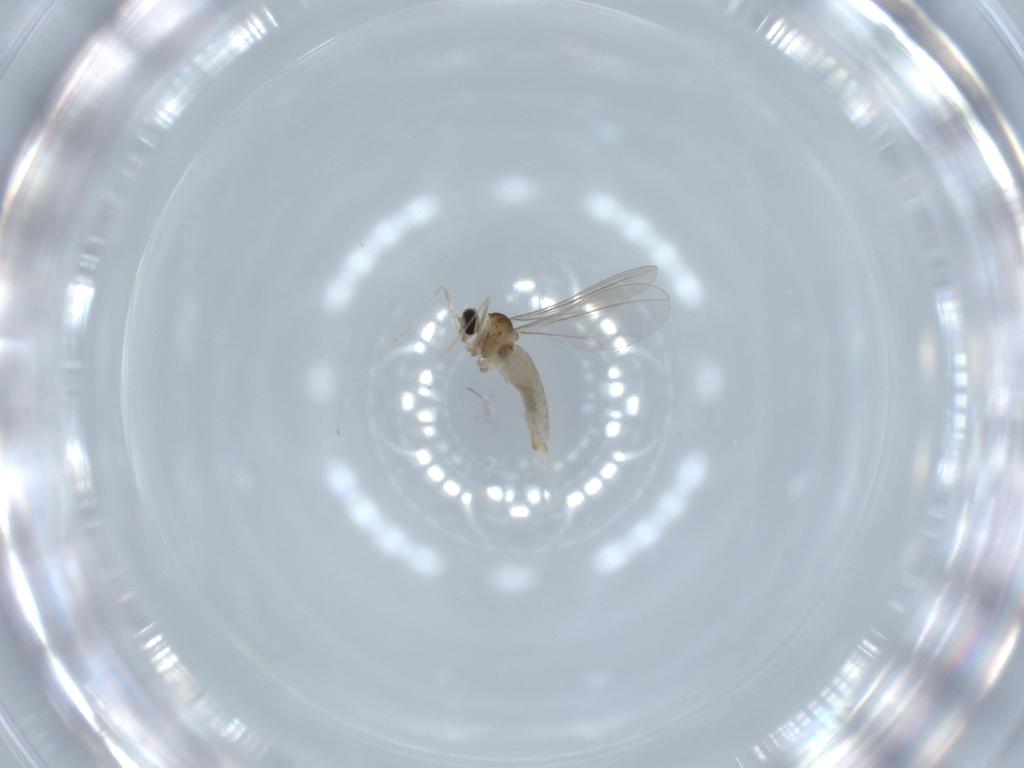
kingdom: Animalia
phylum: Arthropoda
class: Insecta
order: Diptera
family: Cecidomyiidae
